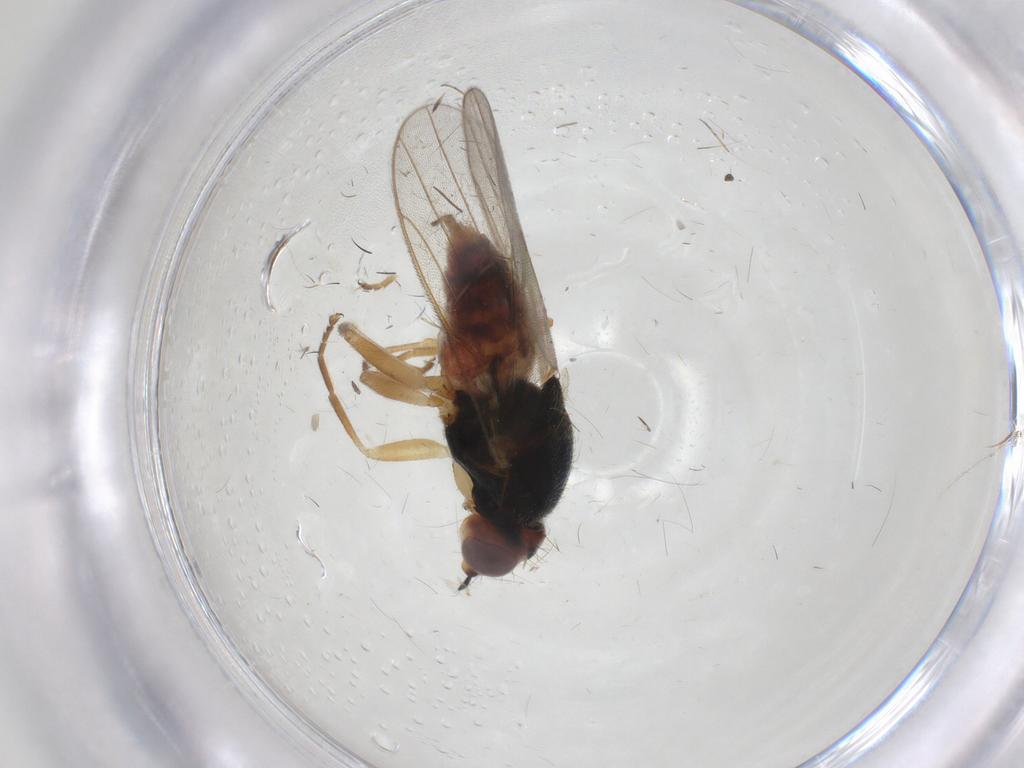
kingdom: Animalia
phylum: Arthropoda
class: Insecta
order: Diptera
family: Chloropidae
